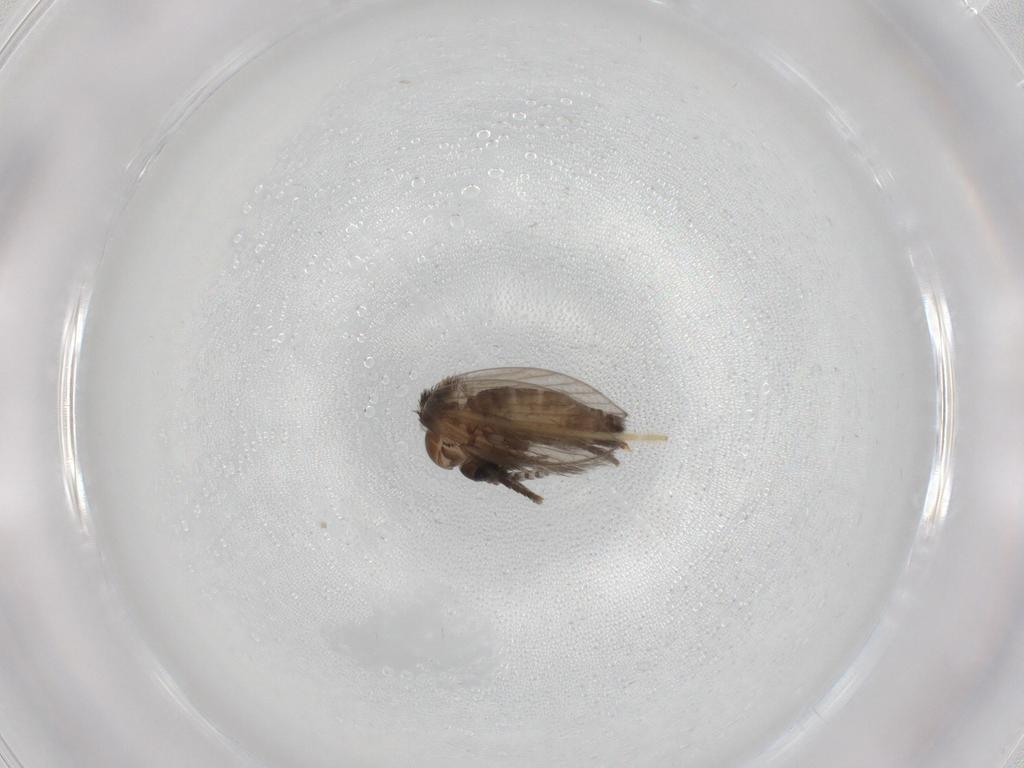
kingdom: Animalia
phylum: Arthropoda
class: Insecta
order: Diptera
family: Psychodidae
